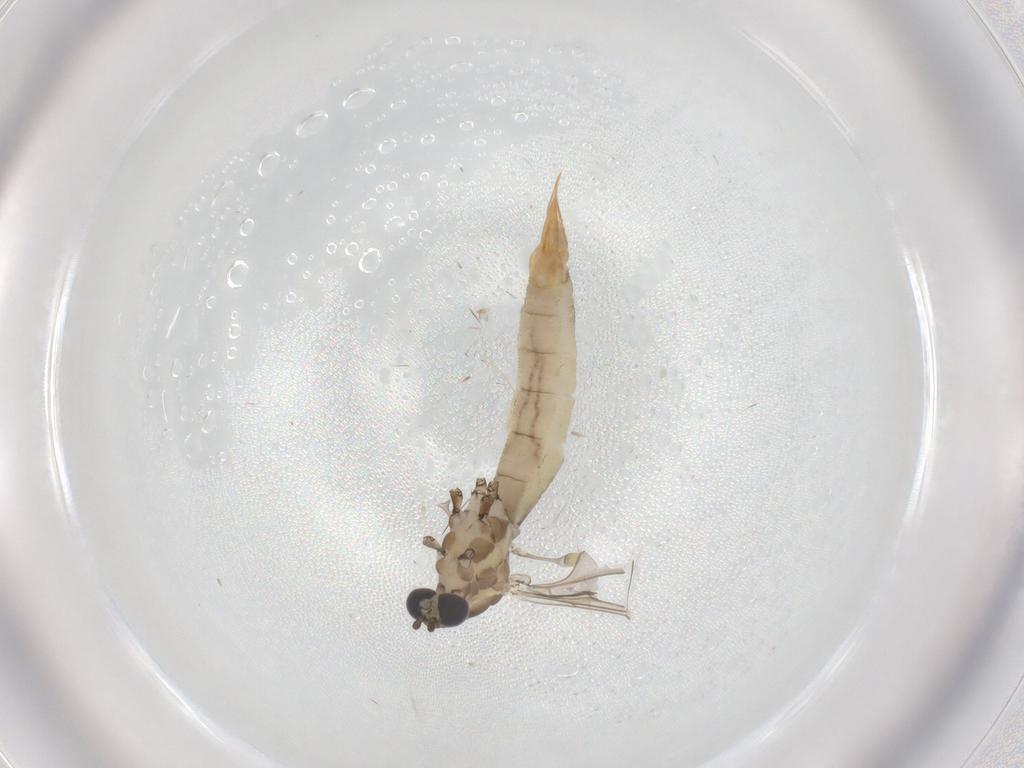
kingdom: Animalia
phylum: Arthropoda
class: Insecta
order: Diptera
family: Limoniidae
